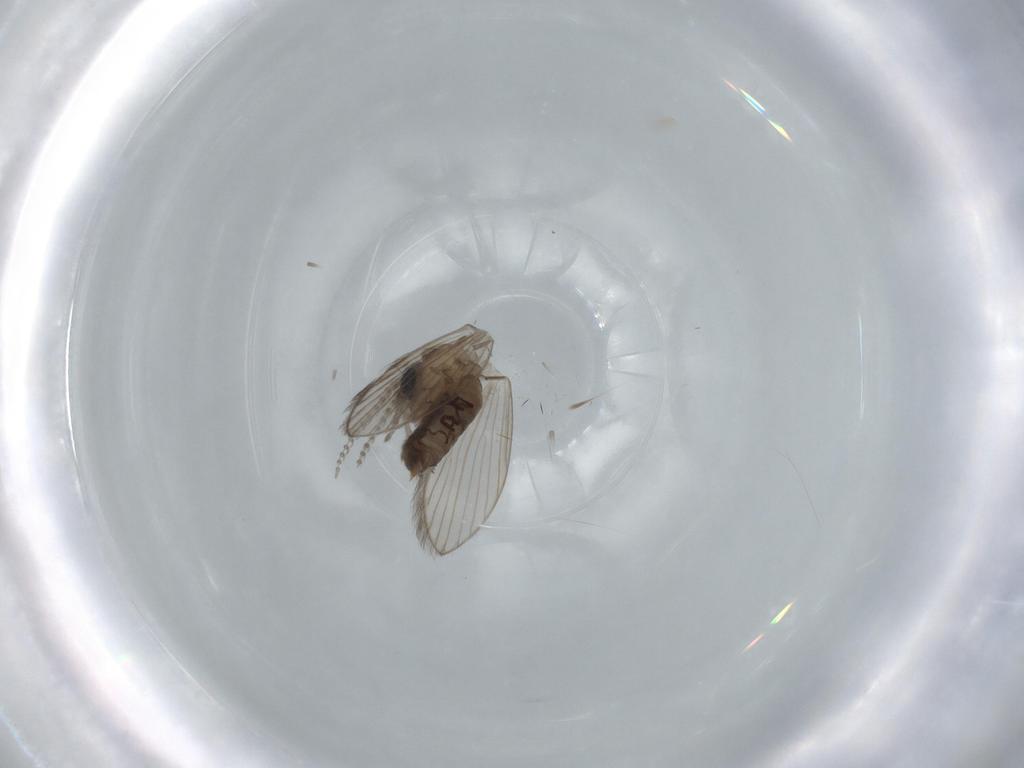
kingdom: Animalia
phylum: Arthropoda
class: Insecta
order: Diptera
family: Psychodidae
